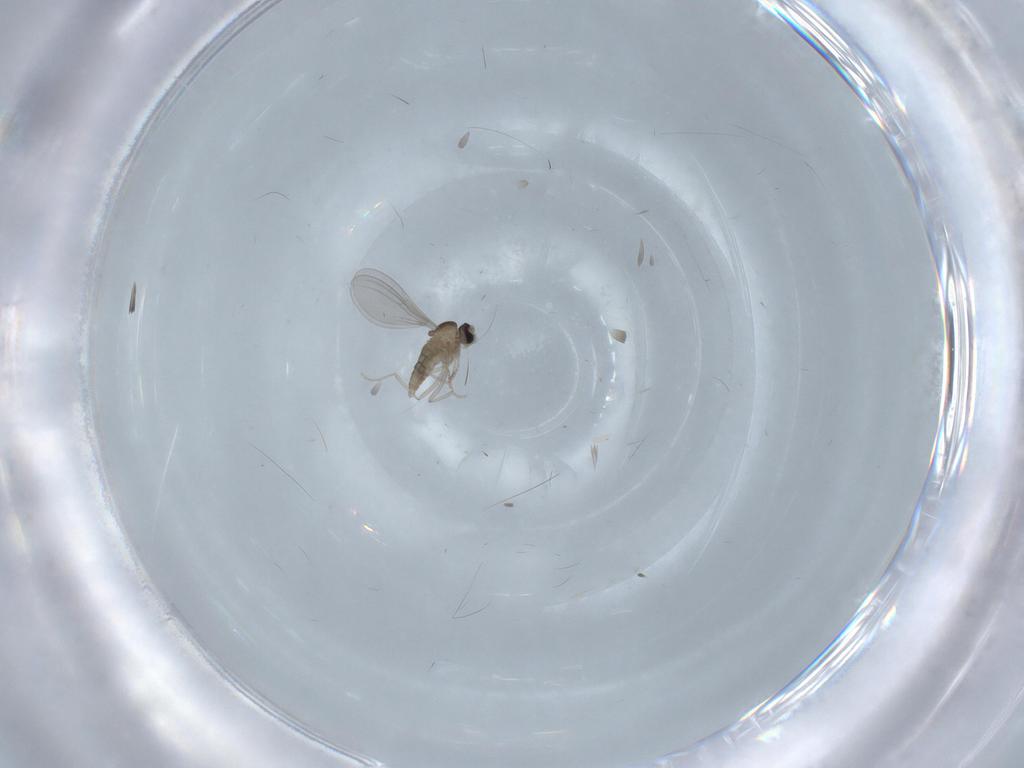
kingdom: Animalia
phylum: Arthropoda
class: Insecta
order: Diptera
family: Cecidomyiidae
